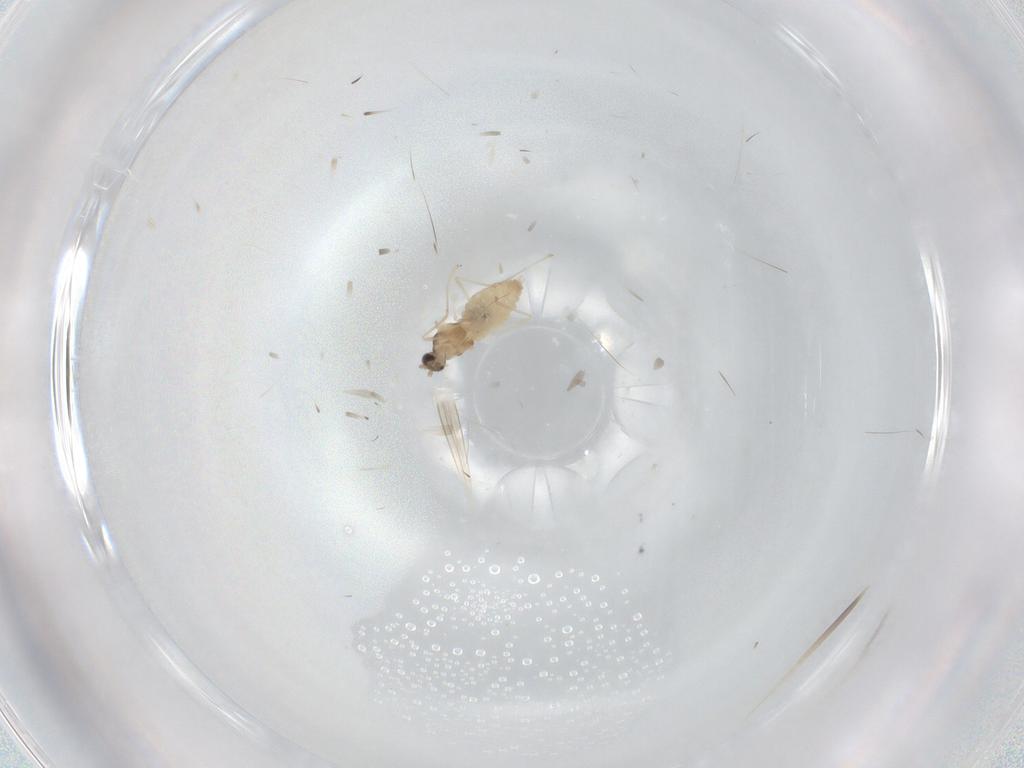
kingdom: Animalia
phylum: Arthropoda
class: Insecta
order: Diptera
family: Cecidomyiidae
